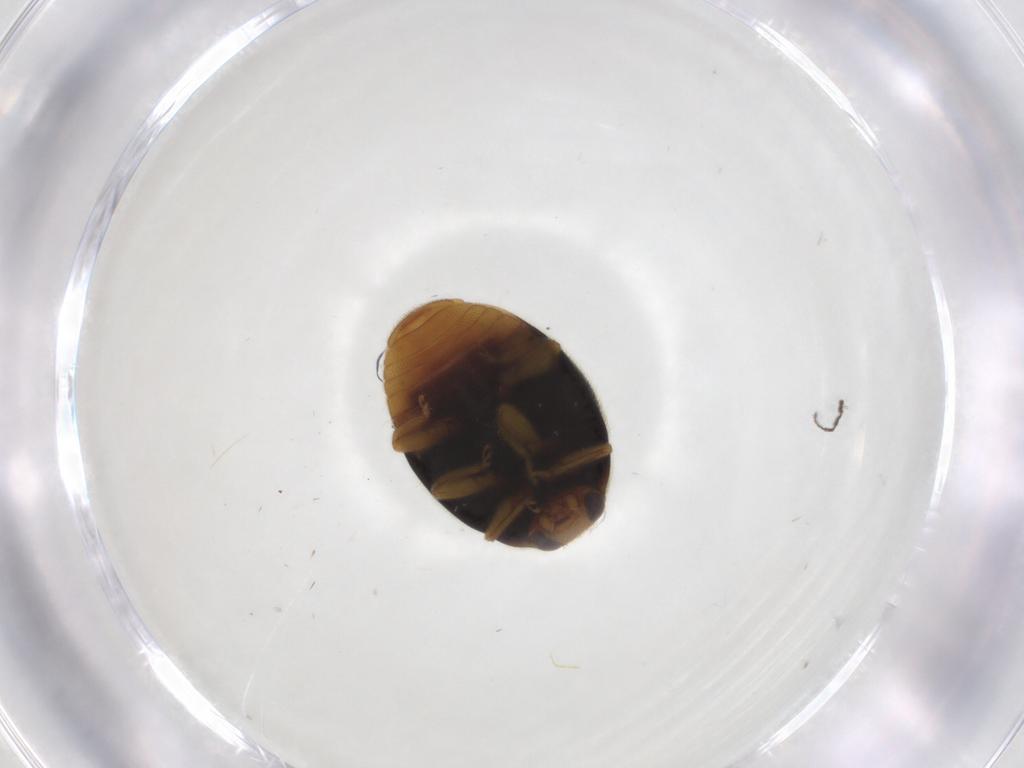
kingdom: Animalia
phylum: Arthropoda
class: Insecta
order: Coleoptera
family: Coccinellidae
